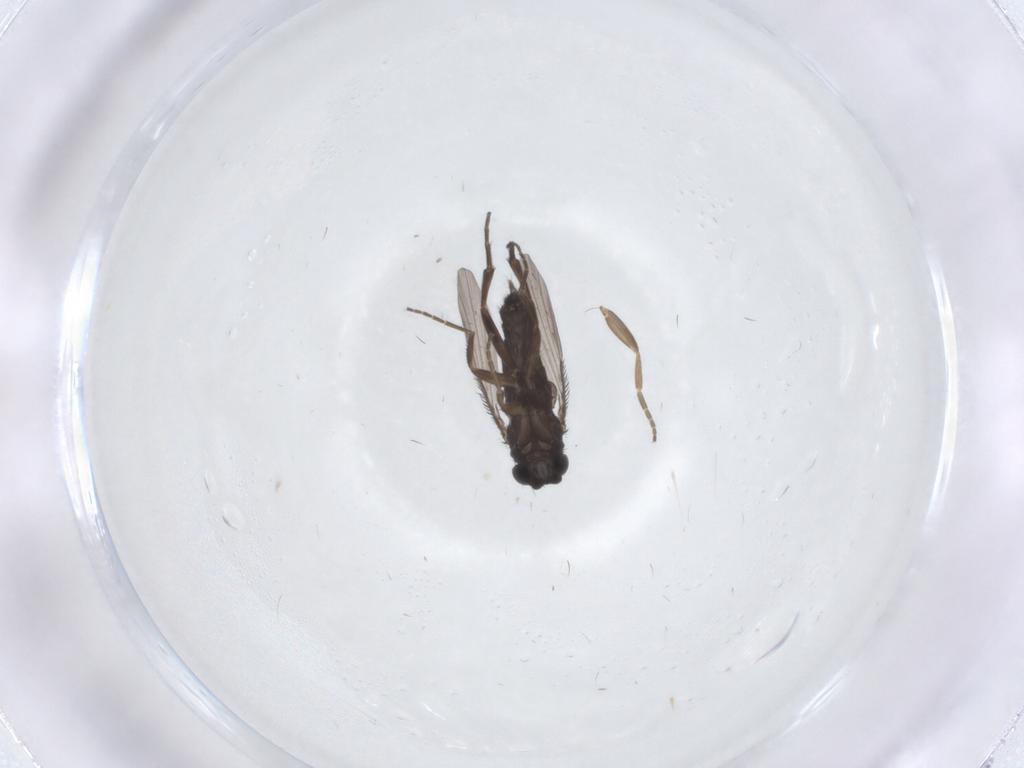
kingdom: Animalia
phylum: Arthropoda
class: Insecta
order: Diptera
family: Phoridae
